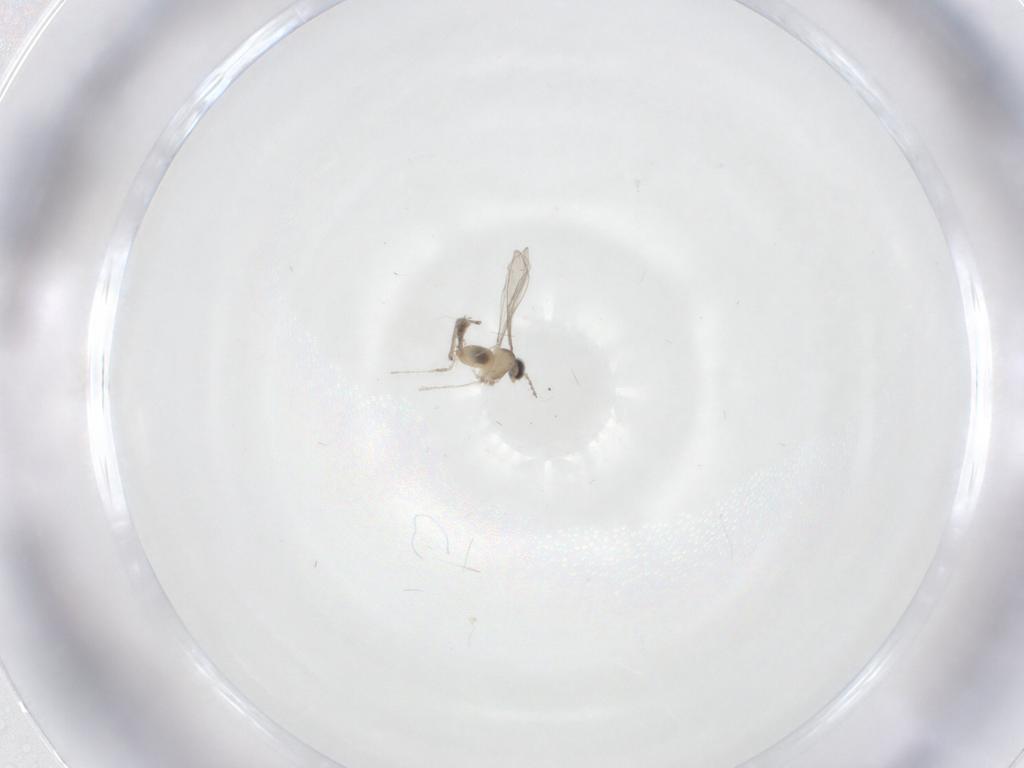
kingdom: Animalia
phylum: Arthropoda
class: Insecta
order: Diptera
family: Cecidomyiidae
